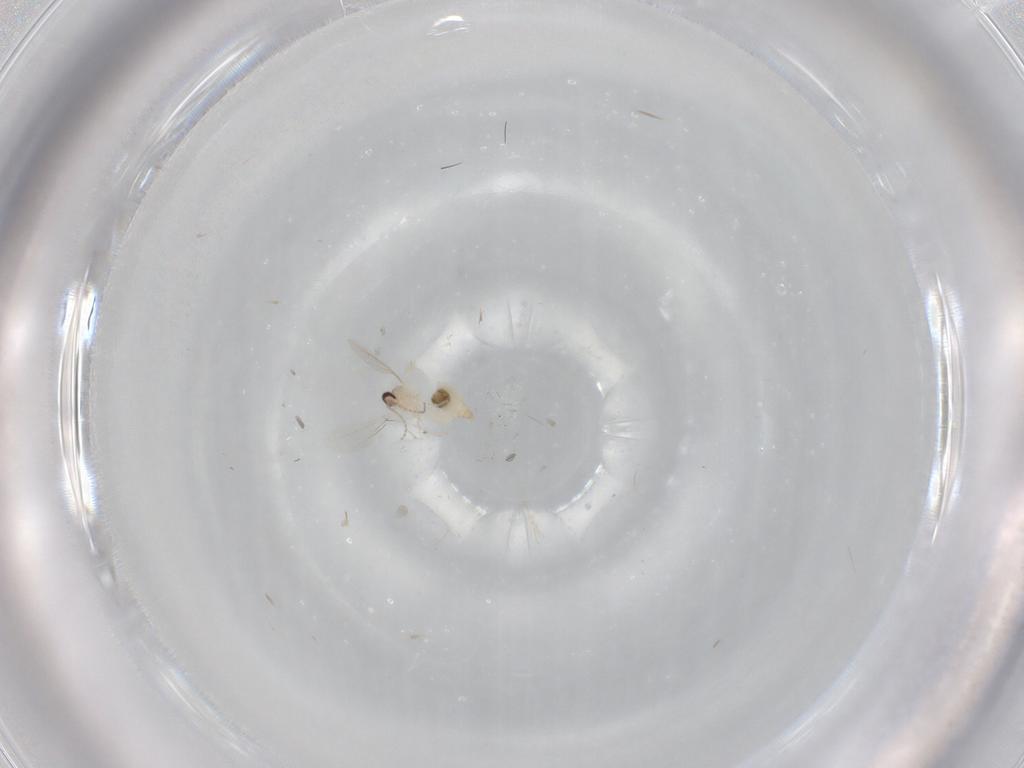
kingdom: Animalia
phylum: Arthropoda
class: Insecta
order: Diptera
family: Cecidomyiidae
